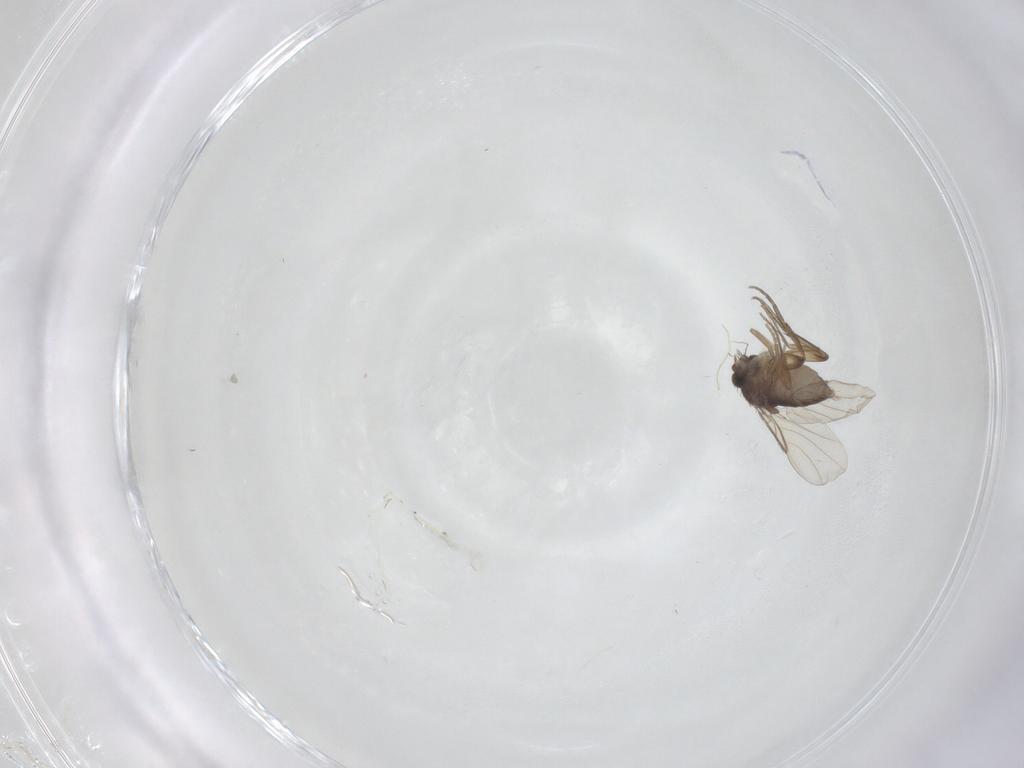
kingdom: Animalia
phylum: Arthropoda
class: Insecta
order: Diptera
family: Phoridae
